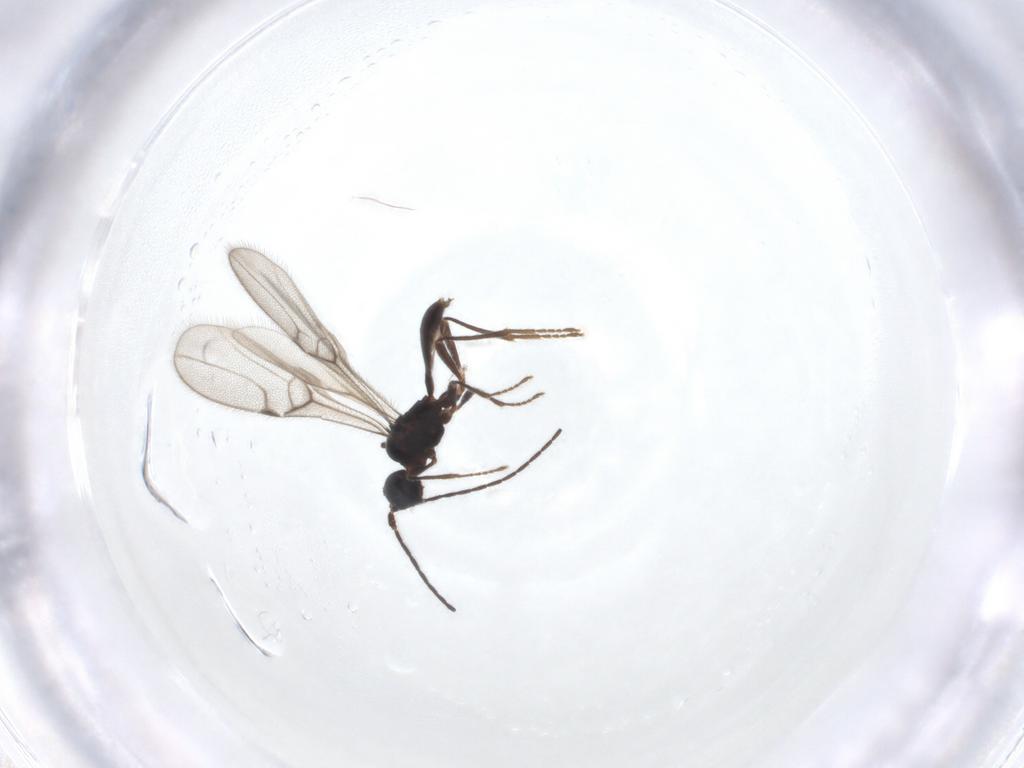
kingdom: Animalia
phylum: Arthropoda
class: Insecta
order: Hymenoptera
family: Braconidae
